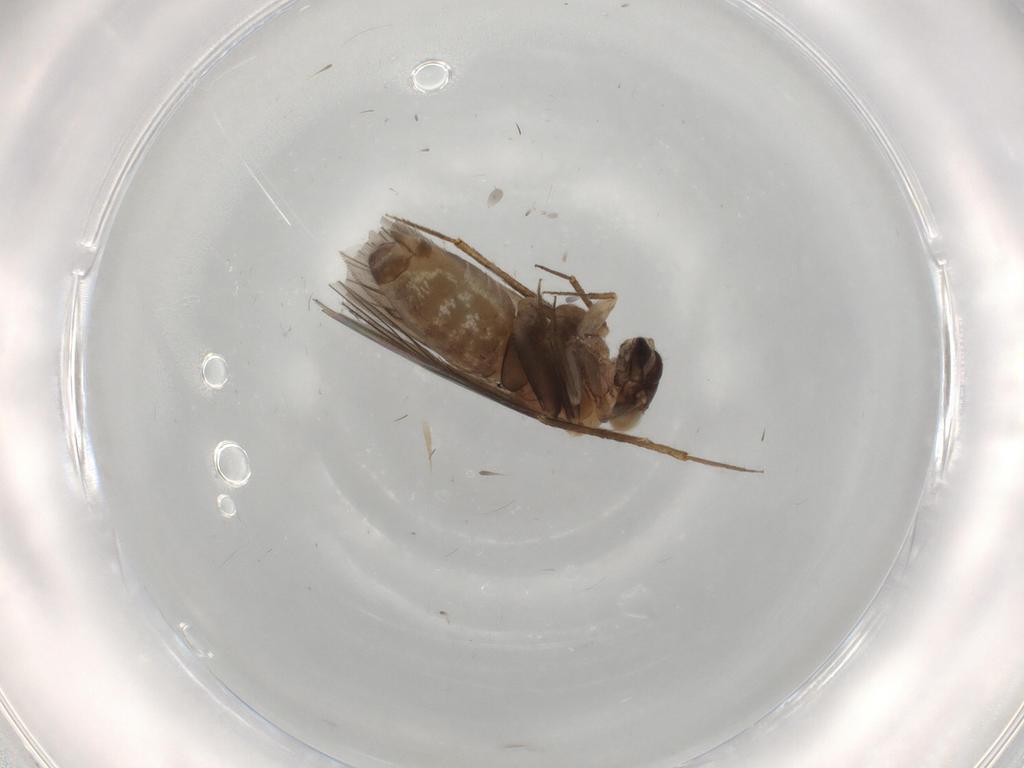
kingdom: Animalia
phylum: Arthropoda
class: Insecta
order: Psocodea
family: Lepidopsocidae
